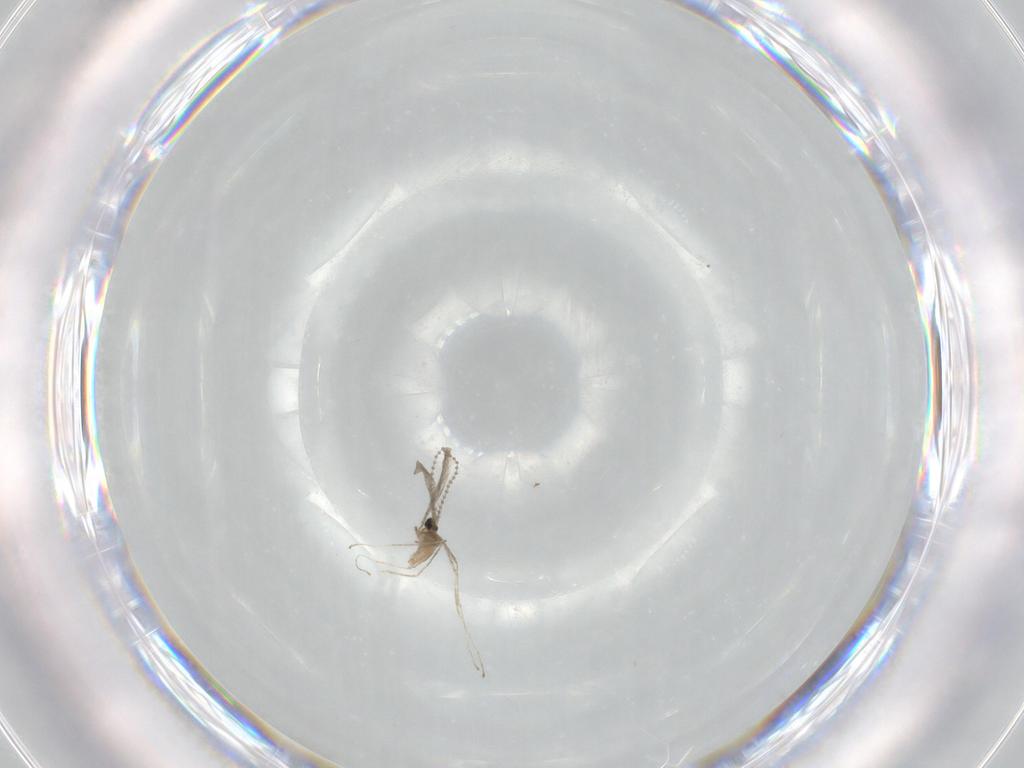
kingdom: Animalia
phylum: Arthropoda
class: Insecta
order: Diptera
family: Cecidomyiidae
